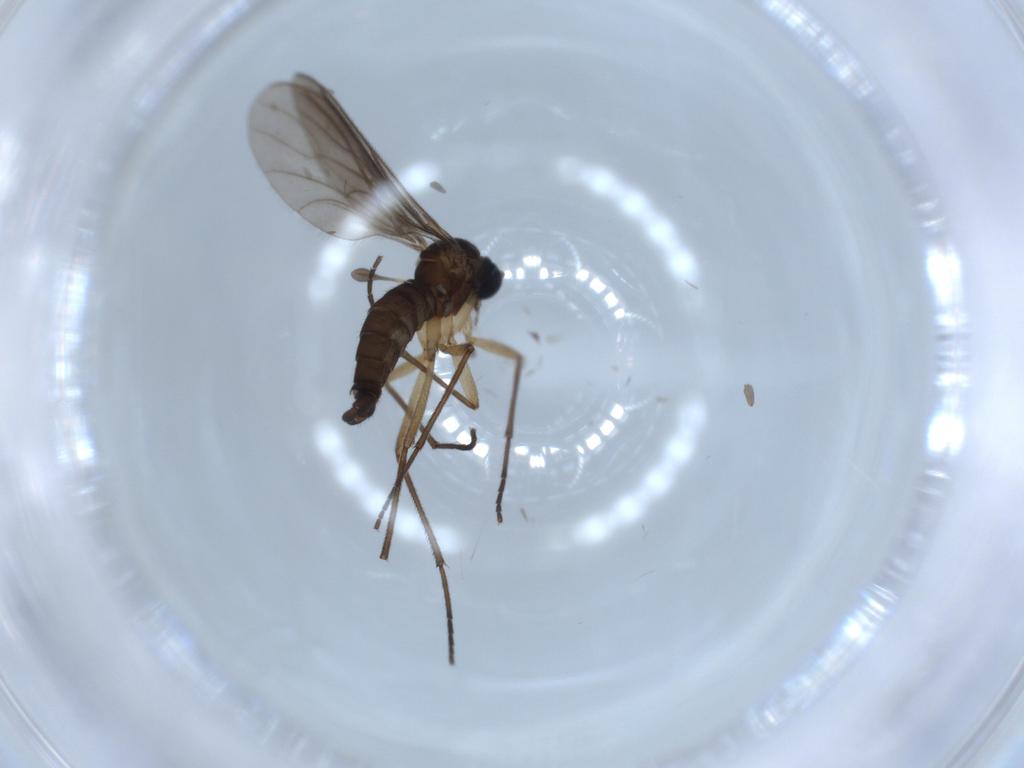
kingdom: Animalia
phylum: Arthropoda
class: Insecta
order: Diptera
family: Sciaridae
